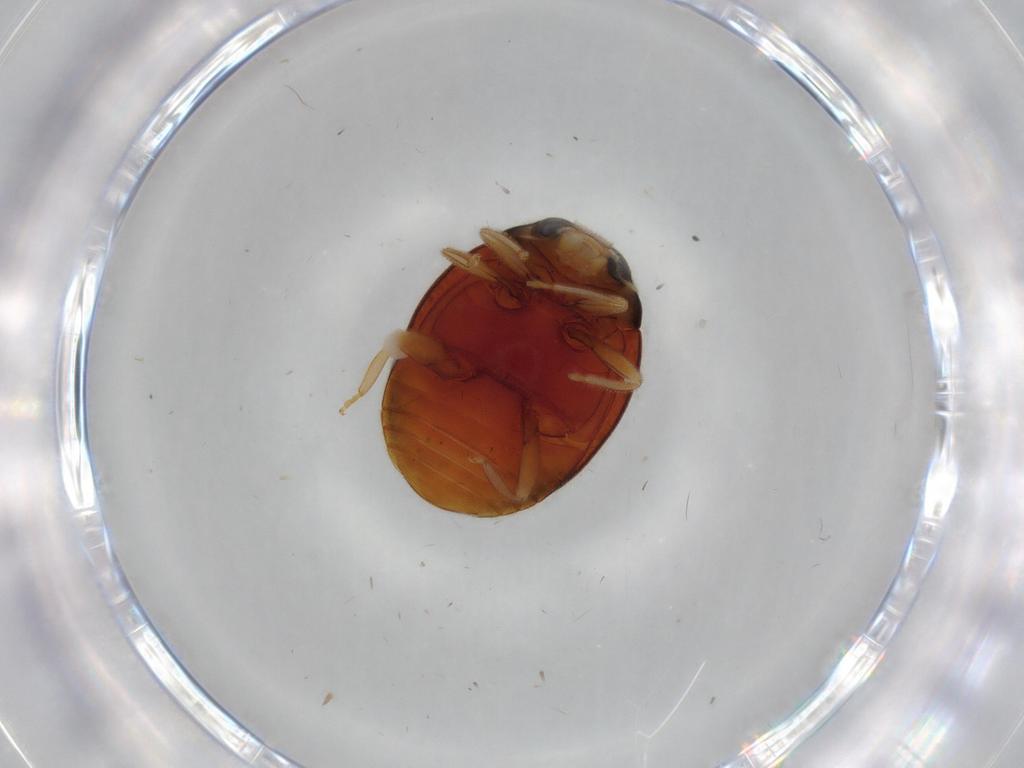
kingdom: Animalia
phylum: Arthropoda
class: Insecta
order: Coleoptera
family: Coccinellidae
